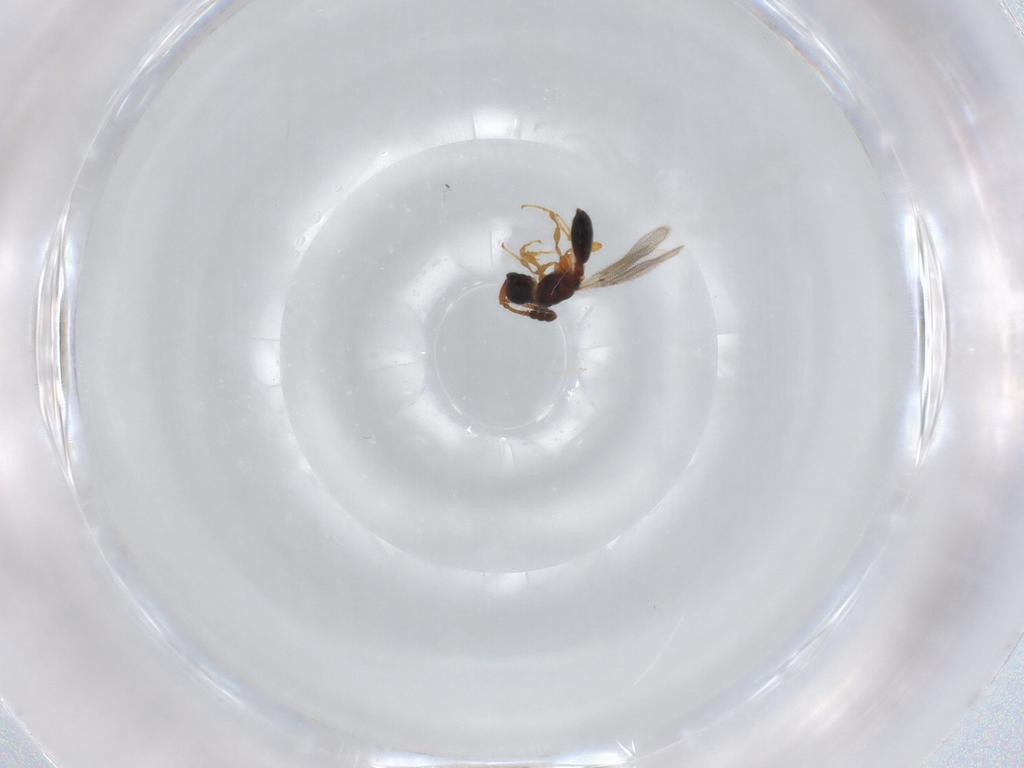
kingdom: Animalia
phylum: Arthropoda
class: Insecta
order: Hymenoptera
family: Diapriidae
